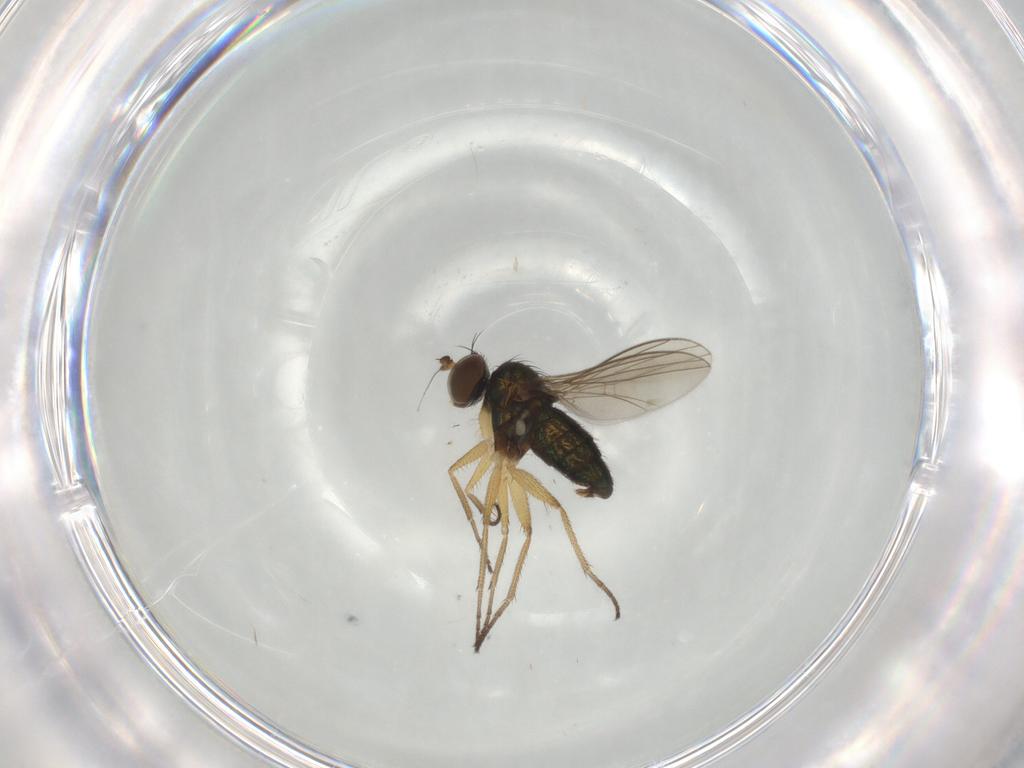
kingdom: Animalia
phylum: Arthropoda
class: Insecta
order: Diptera
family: Dolichopodidae
